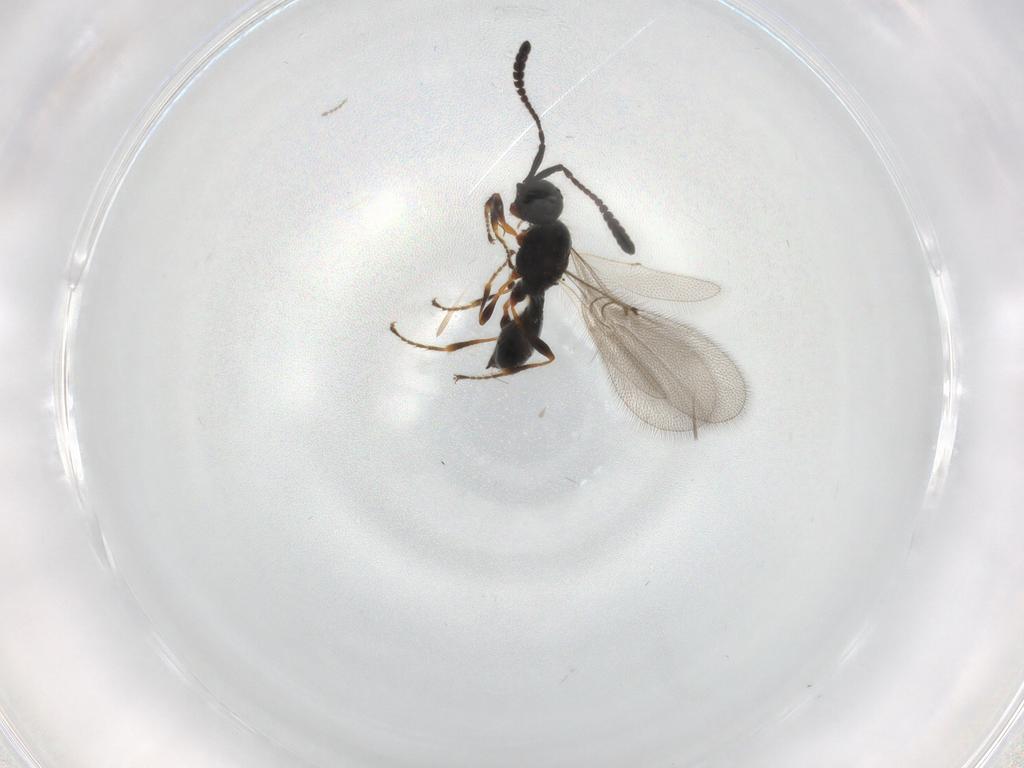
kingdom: Animalia
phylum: Arthropoda
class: Insecta
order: Hymenoptera
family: Diapriidae
